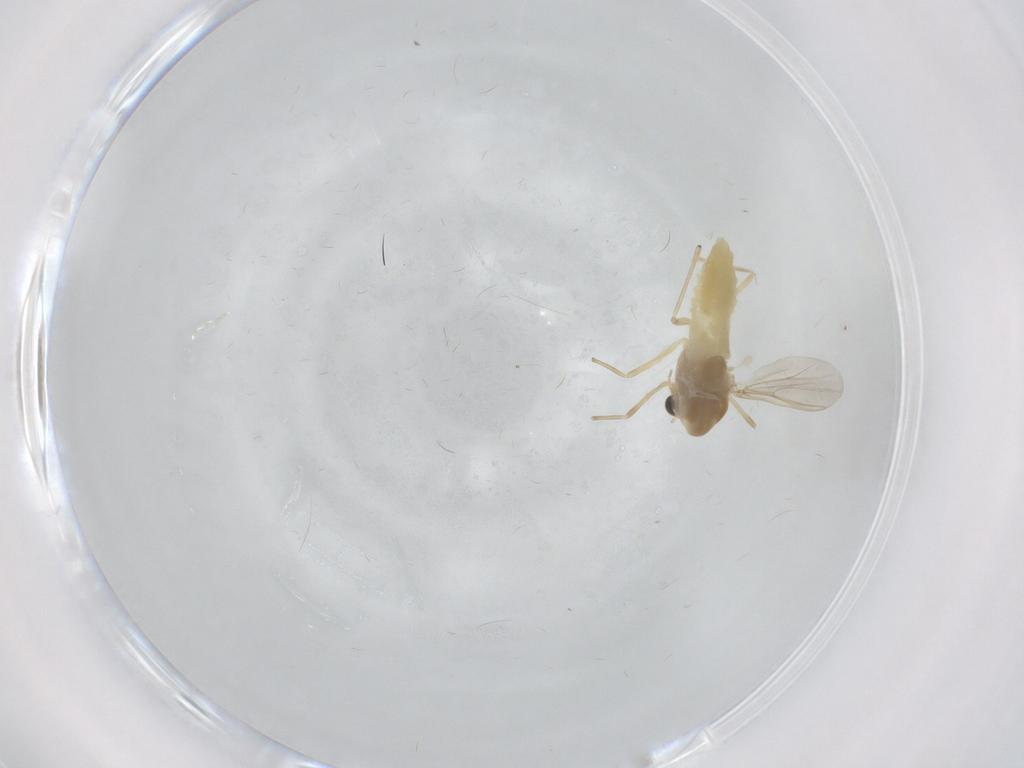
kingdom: Animalia
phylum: Arthropoda
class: Insecta
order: Diptera
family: Chironomidae
